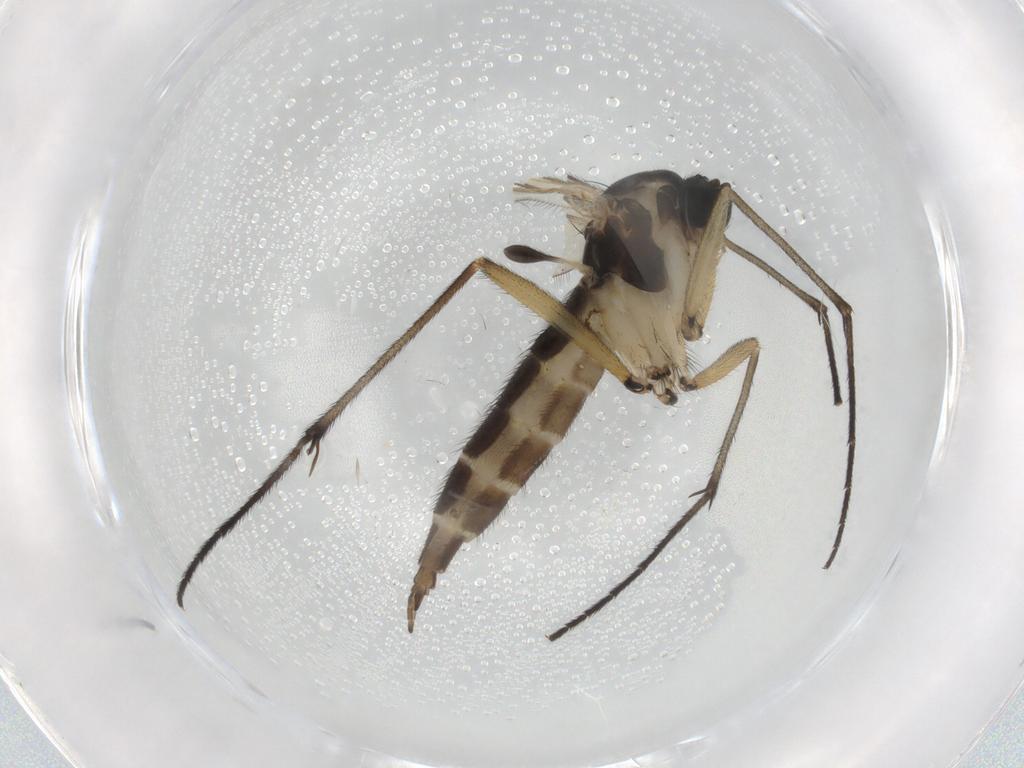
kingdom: Animalia
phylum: Arthropoda
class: Insecta
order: Diptera
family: Sciaridae
